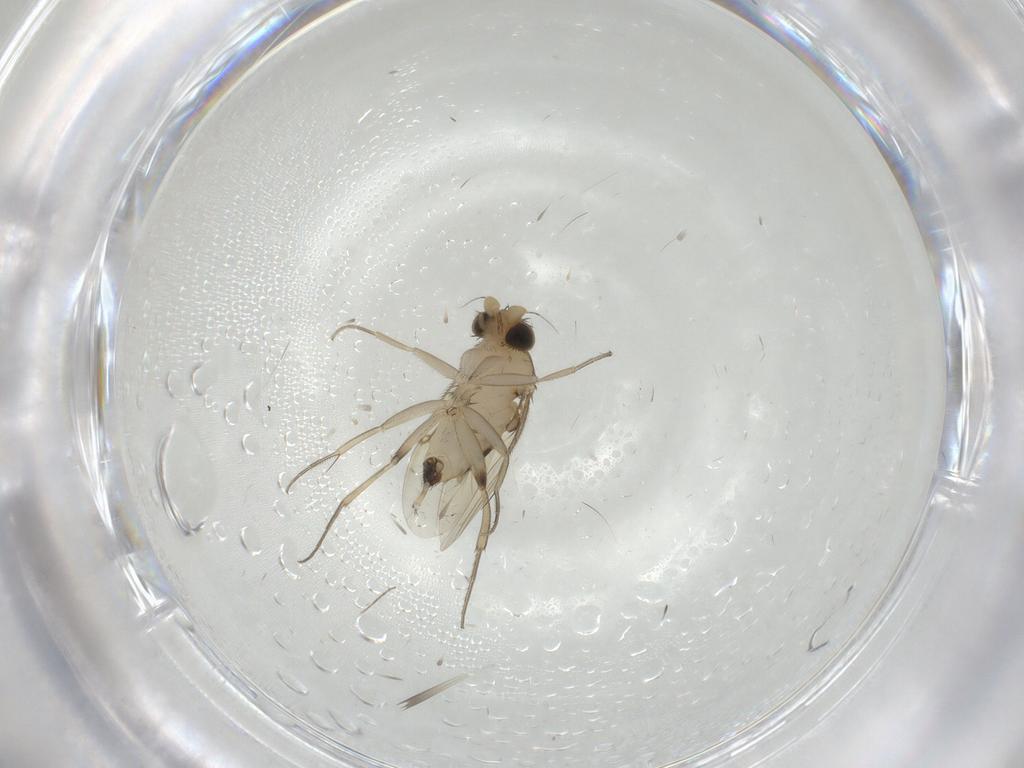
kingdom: Animalia
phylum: Arthropoda
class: Insecta
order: Diptera
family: Phoridae
